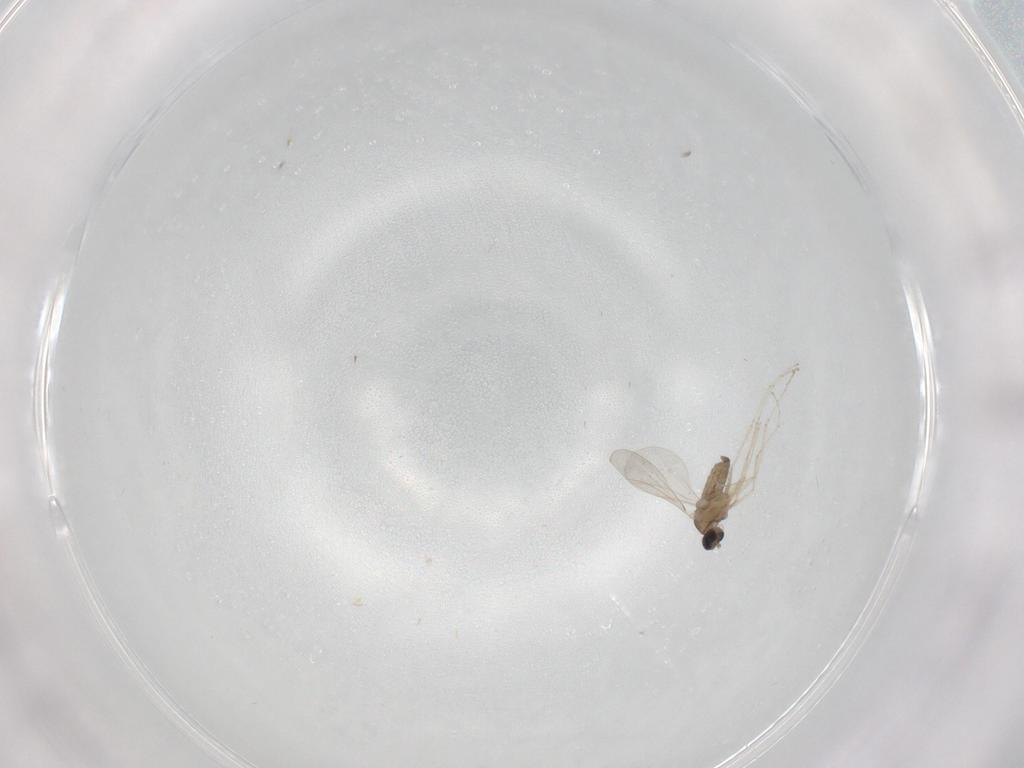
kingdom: Animalia
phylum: Arthropoda
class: Insecta
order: Diptera
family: Cecidomyiidae
